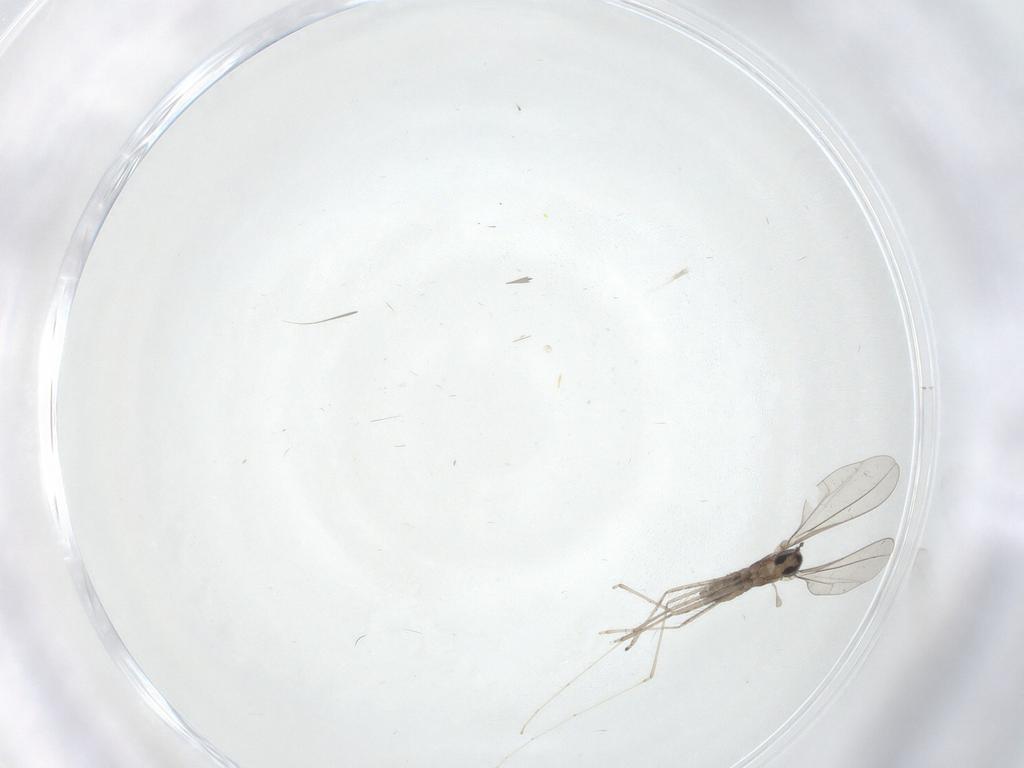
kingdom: Animalia
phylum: Arthropoda
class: Insecta
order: Diptera
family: Cecidomyiidae
